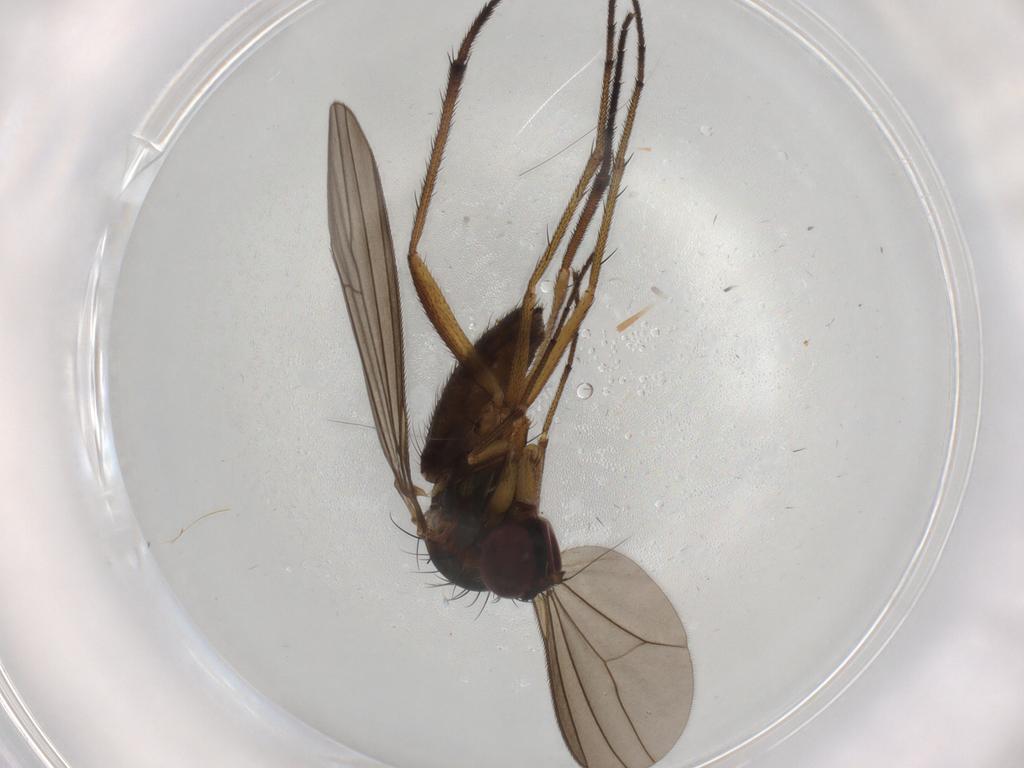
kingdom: Animalia
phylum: Arthropoda
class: Insecta
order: Diptera
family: Dolichopodidae
